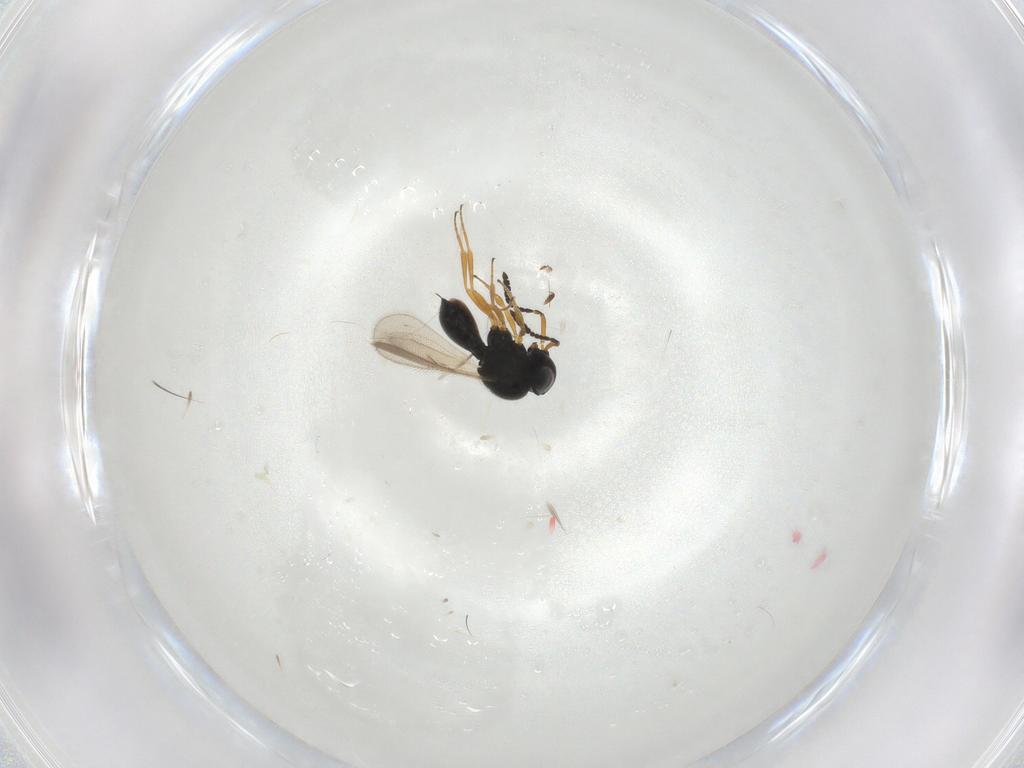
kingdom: Animalia
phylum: Arthropoda
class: Insecta
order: Hymenoptera
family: Scelionidae
